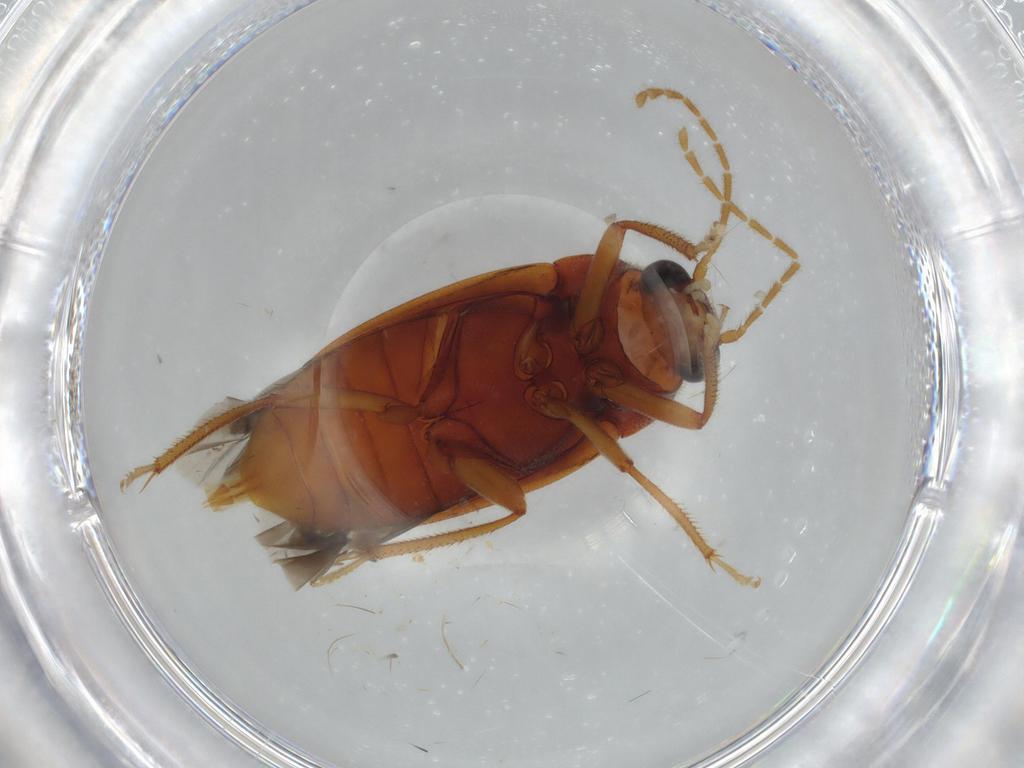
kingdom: Animalia
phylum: Arthropoda
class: Insecta
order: Coleoptera
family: Ptilodactylidae
